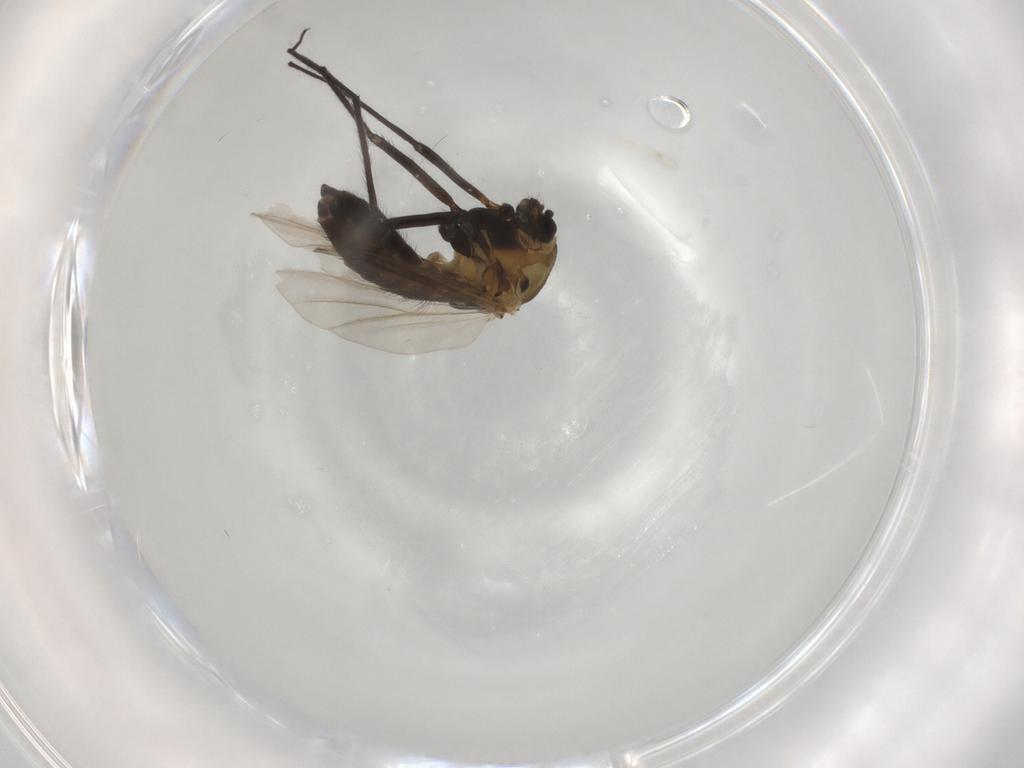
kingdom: Animalia
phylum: Arthropoda
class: Insecta
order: Diptera
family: Chironomidae
